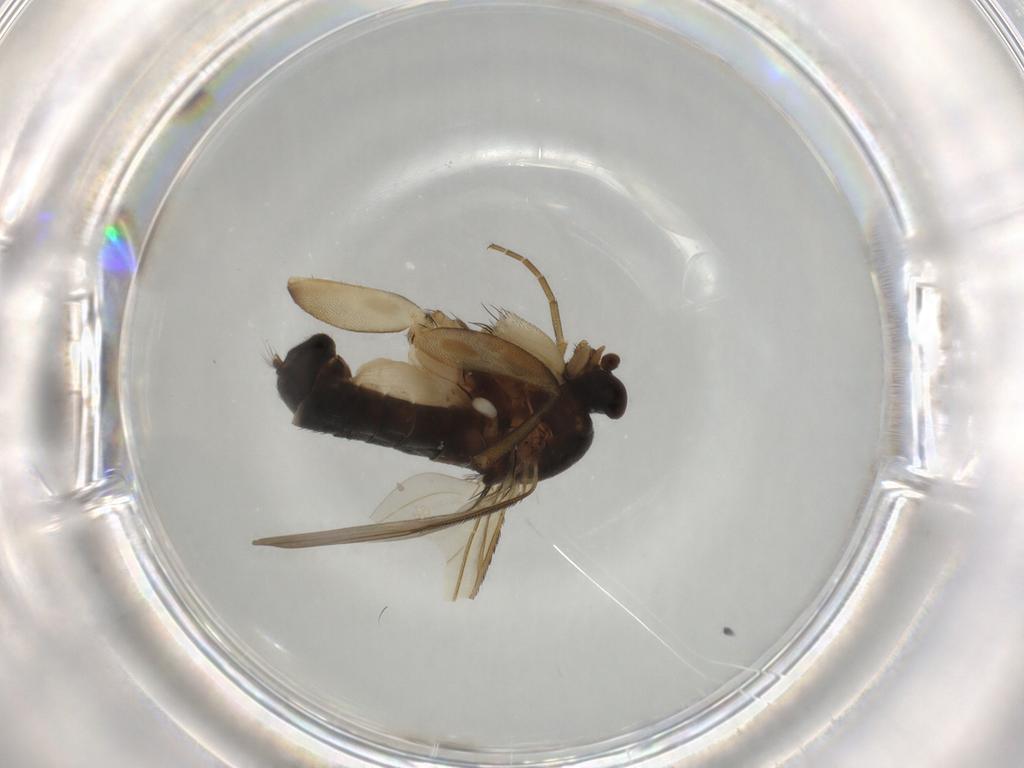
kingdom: Animalia
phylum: Arthropoda
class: Insecta
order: Diptera
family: Phoridae
